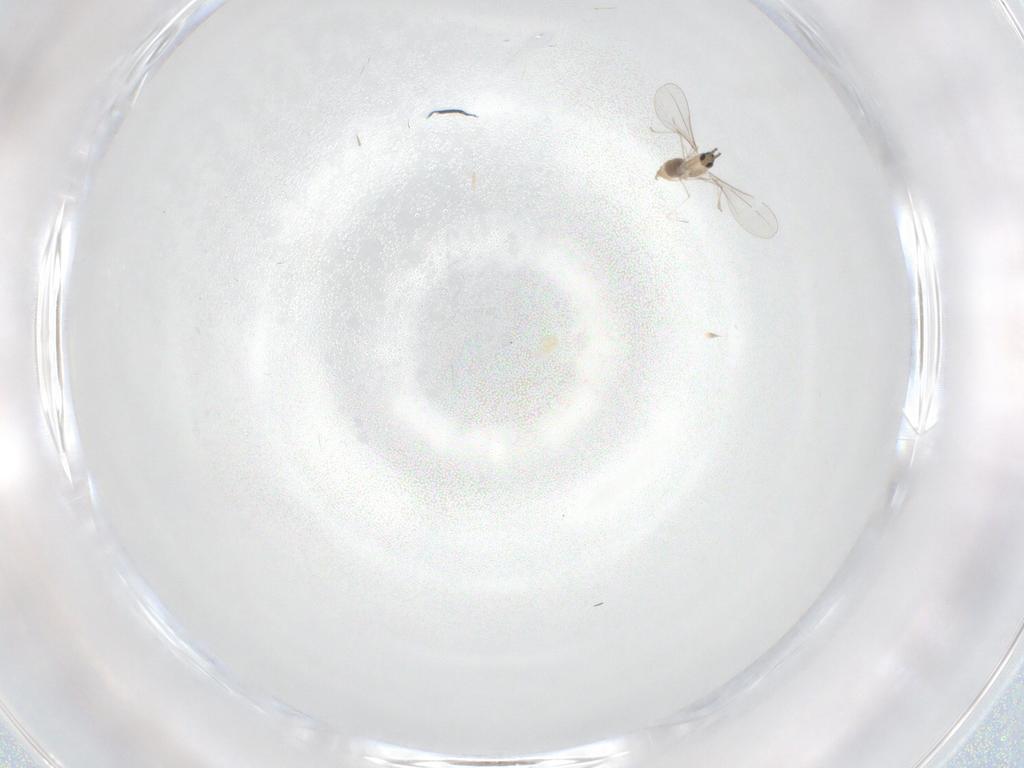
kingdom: Animalia
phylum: Arthropoda
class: Insecta
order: Diptera
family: Cecidomyiidae
